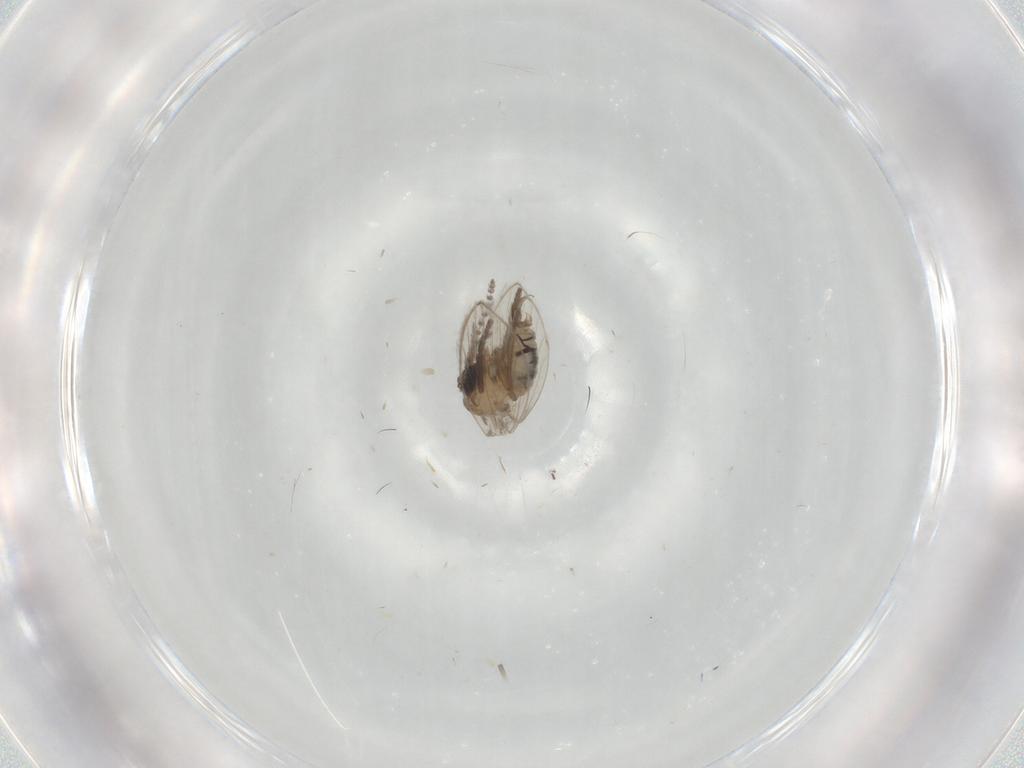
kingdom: Animalia
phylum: Arthropoda
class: Insecta
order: Diptera
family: Psychodidae
